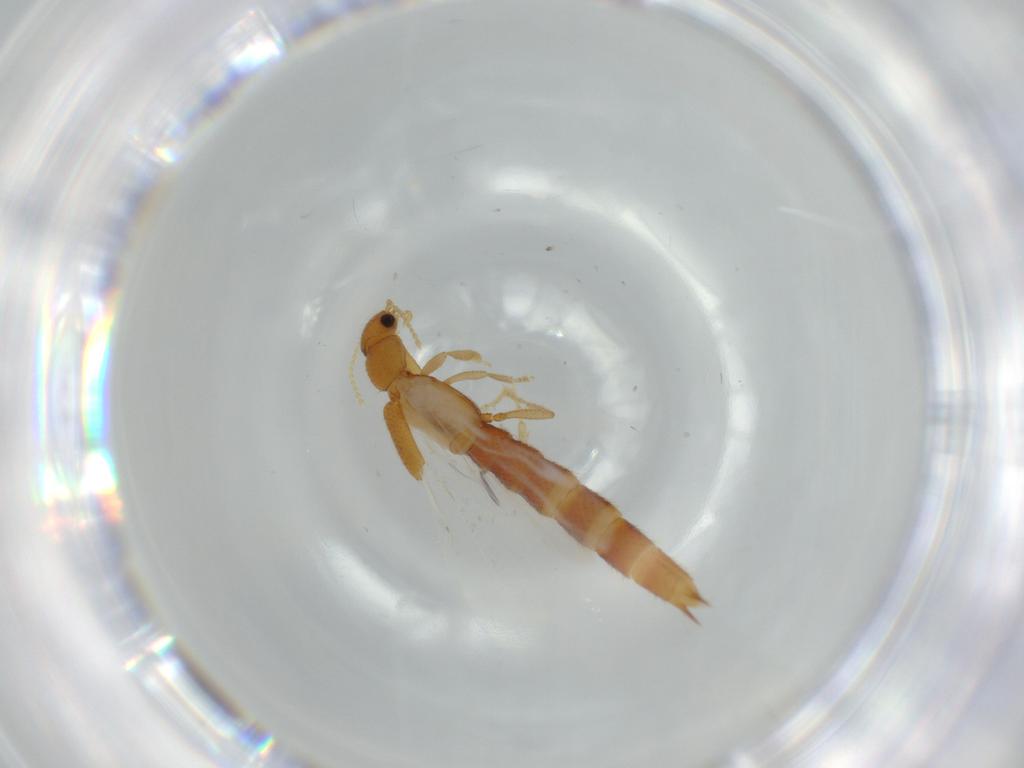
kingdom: Animalia
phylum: Arthropoda
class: Insecta
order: Coleoptera
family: Staphylinidae
